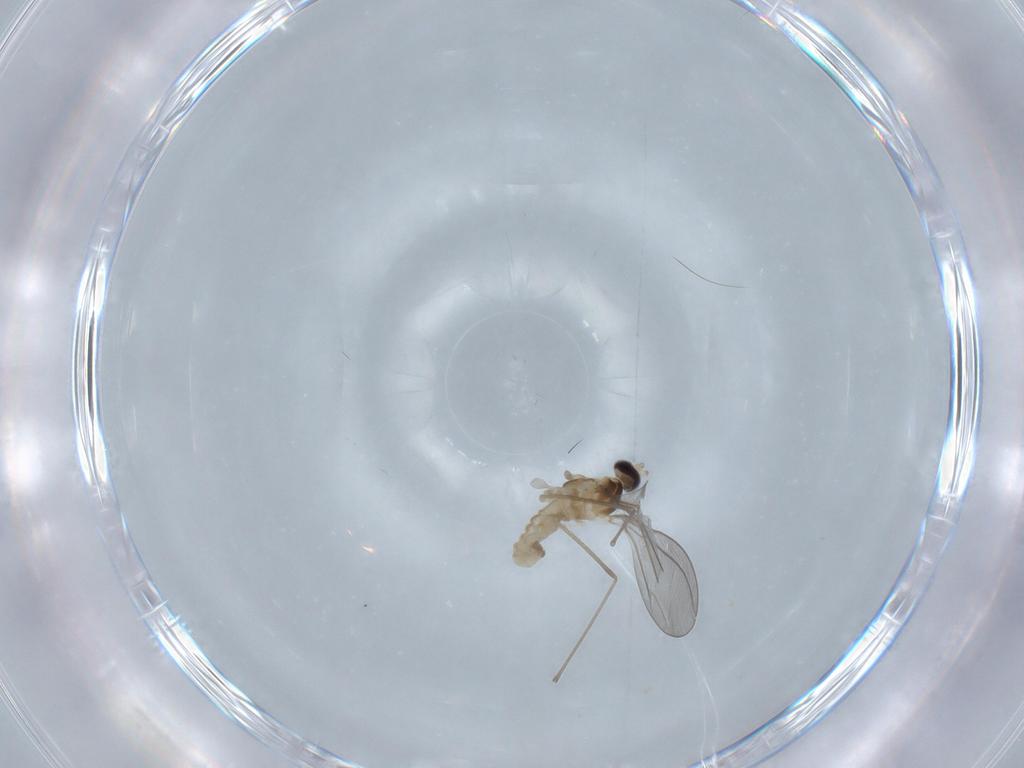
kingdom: Animalia
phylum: Arthropoda
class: Insecta
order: Diptera
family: Cecidomyiidae
